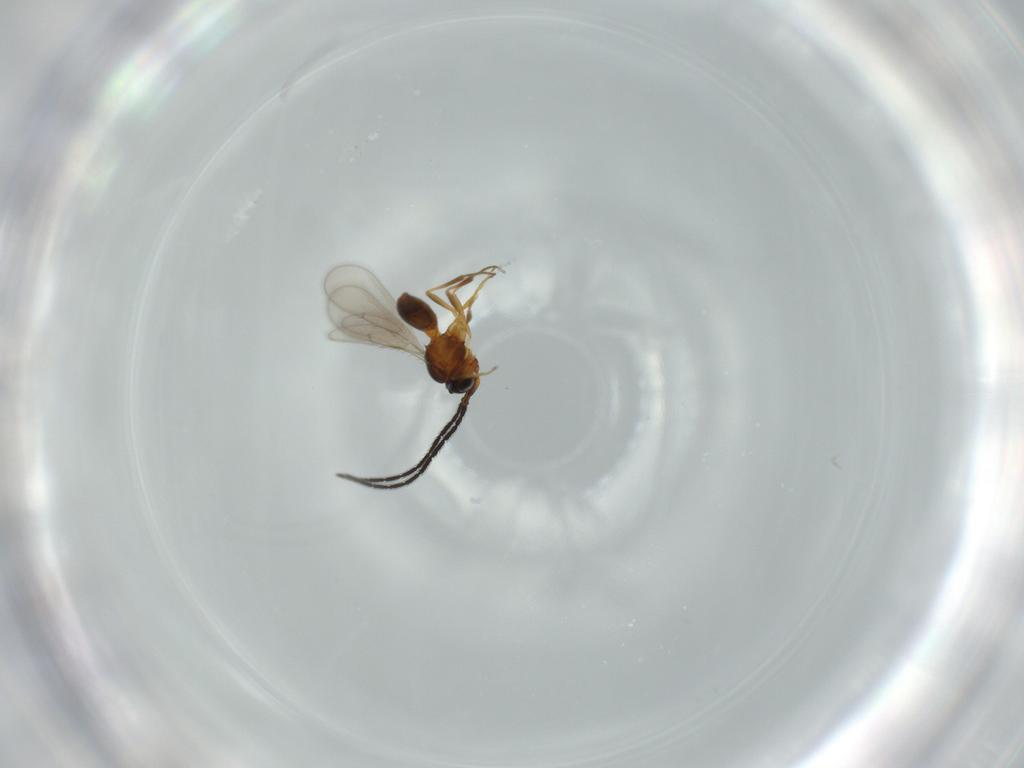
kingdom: Animalia
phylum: Arthropoda
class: Insecta
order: Hymenoptera
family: Scelionidae
